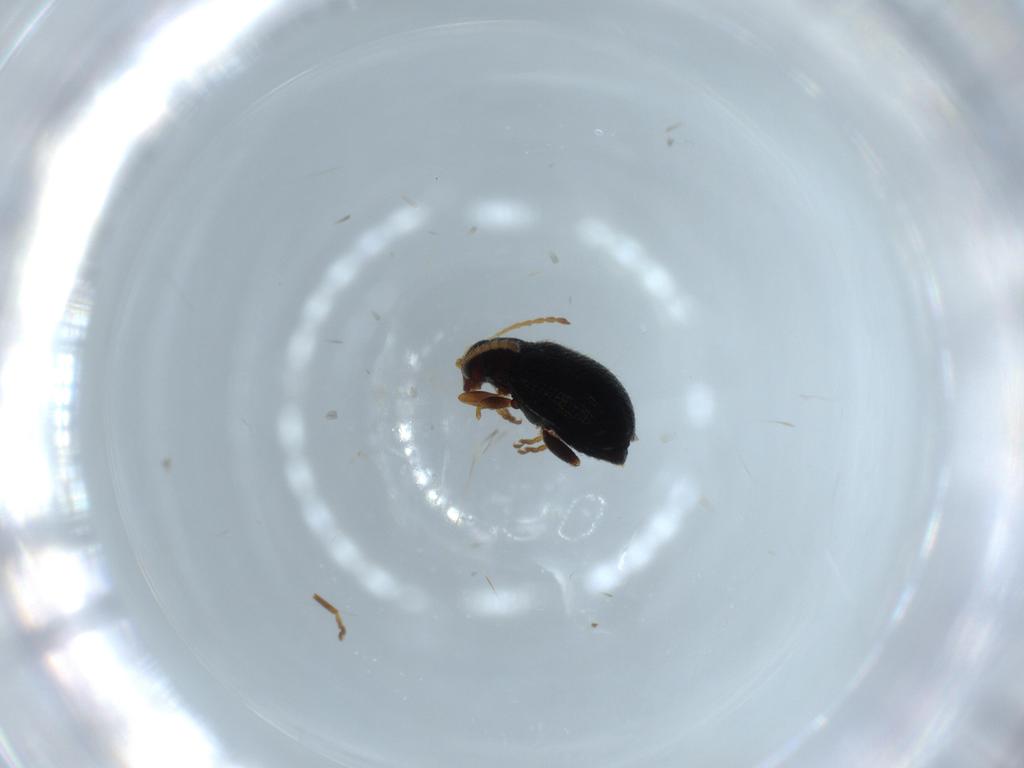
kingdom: Animalia
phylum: Arthropoda
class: Insecta
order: Coleoptera
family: Chrysomelidae
